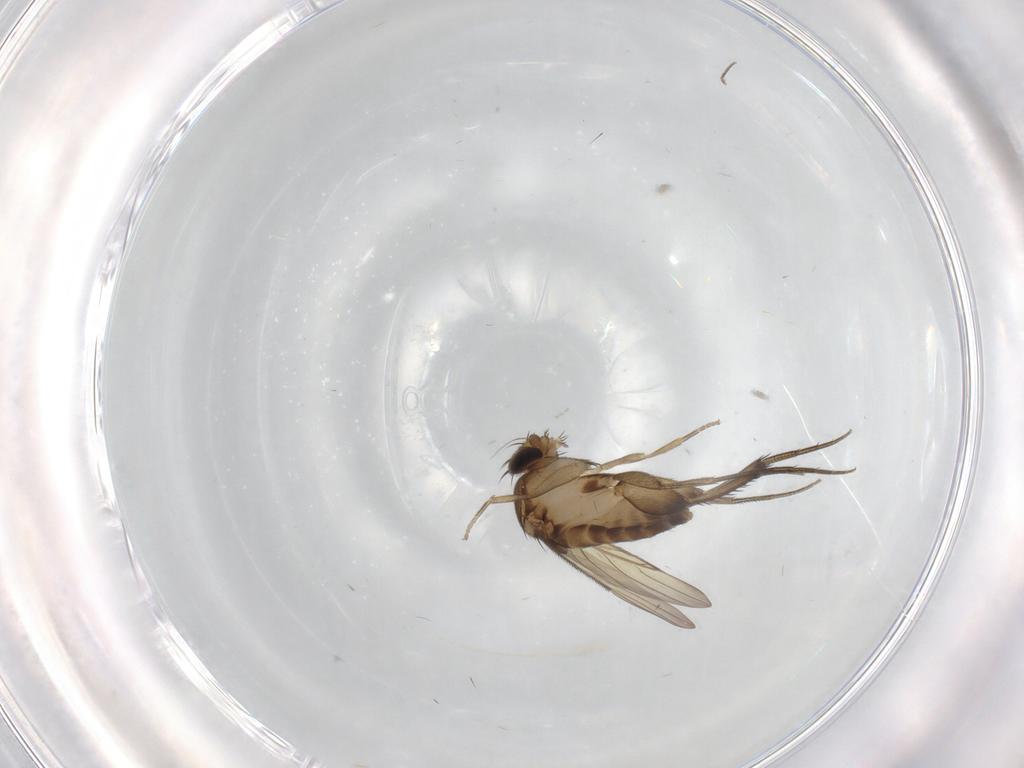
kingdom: Animalia
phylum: Arthropoda
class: Insecta
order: Diptera
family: Phoridae
